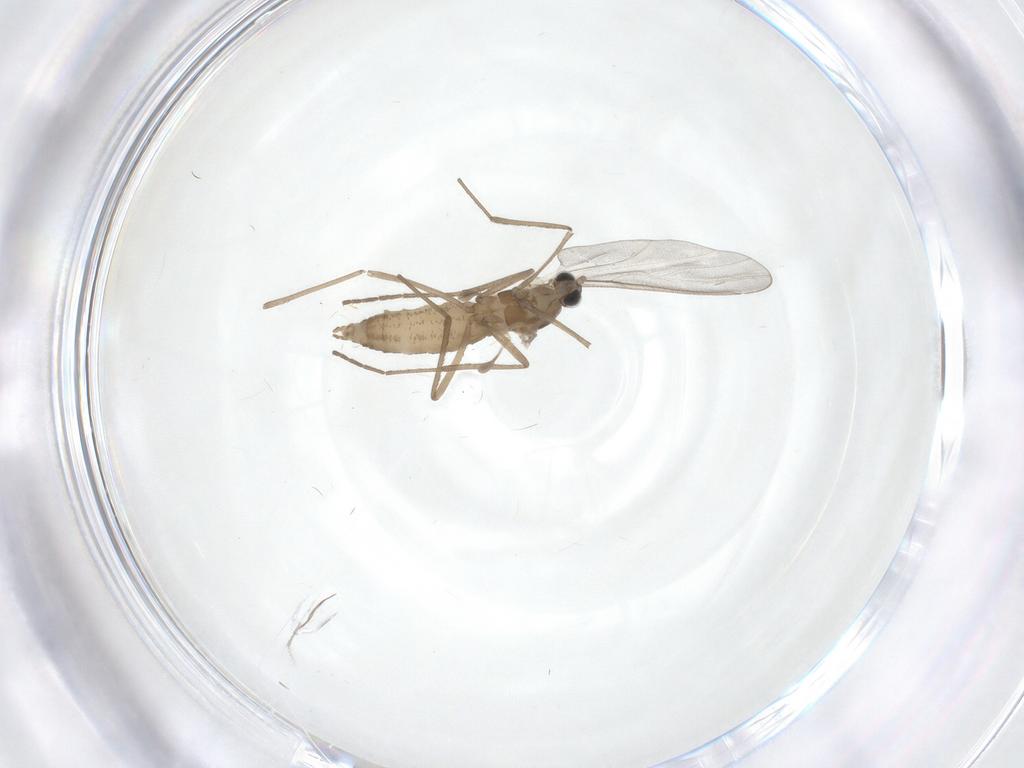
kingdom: Animalia
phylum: Arthropoda
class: Insecta
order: Diptera
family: Cecidomyiidae
